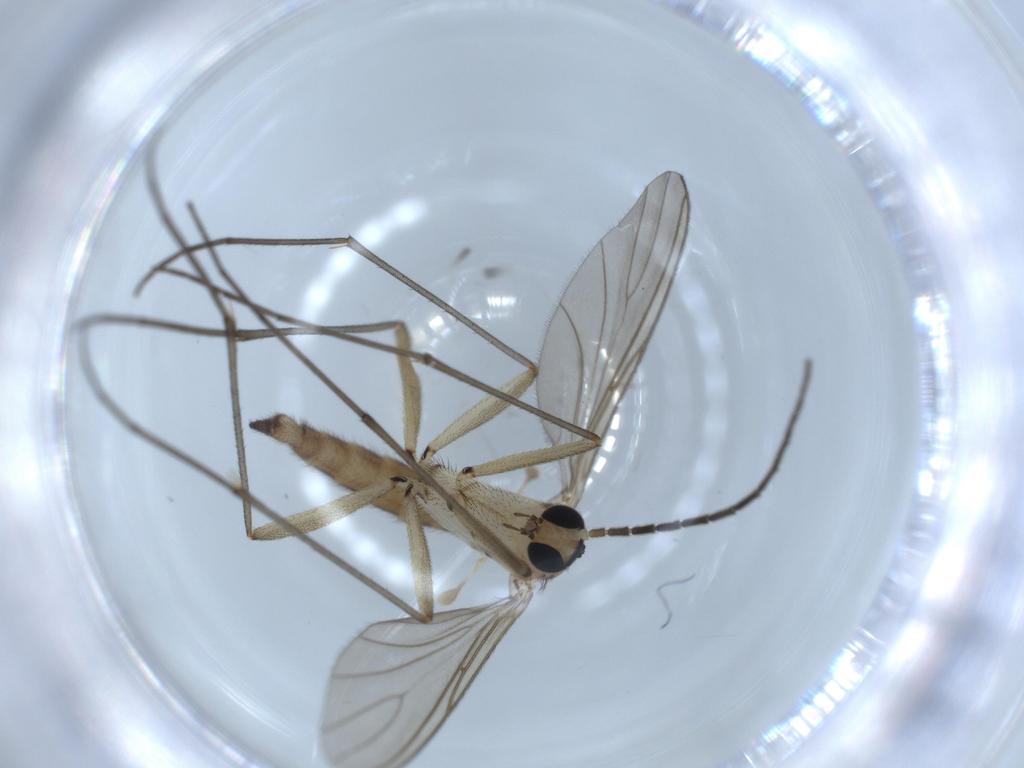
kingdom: Animalia
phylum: Arthropoda
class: Insecta
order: Diptera
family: Sciaridae
